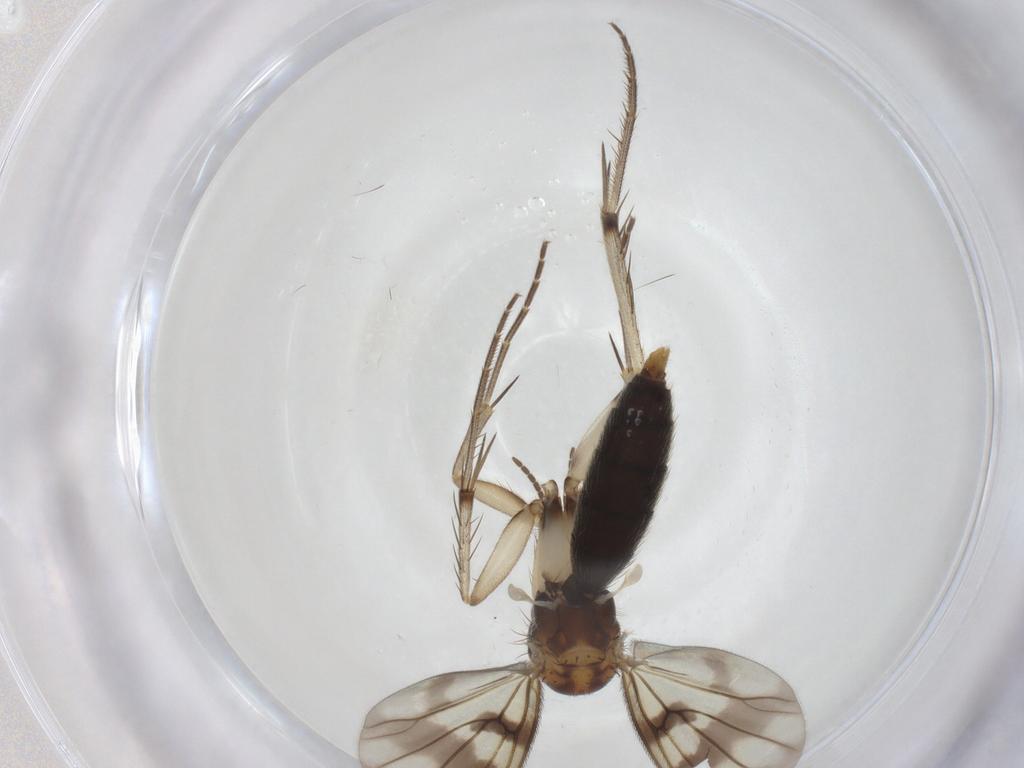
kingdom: Animalia
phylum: Arthropoda
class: Insecta
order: Diptera
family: Mycetophilidae
